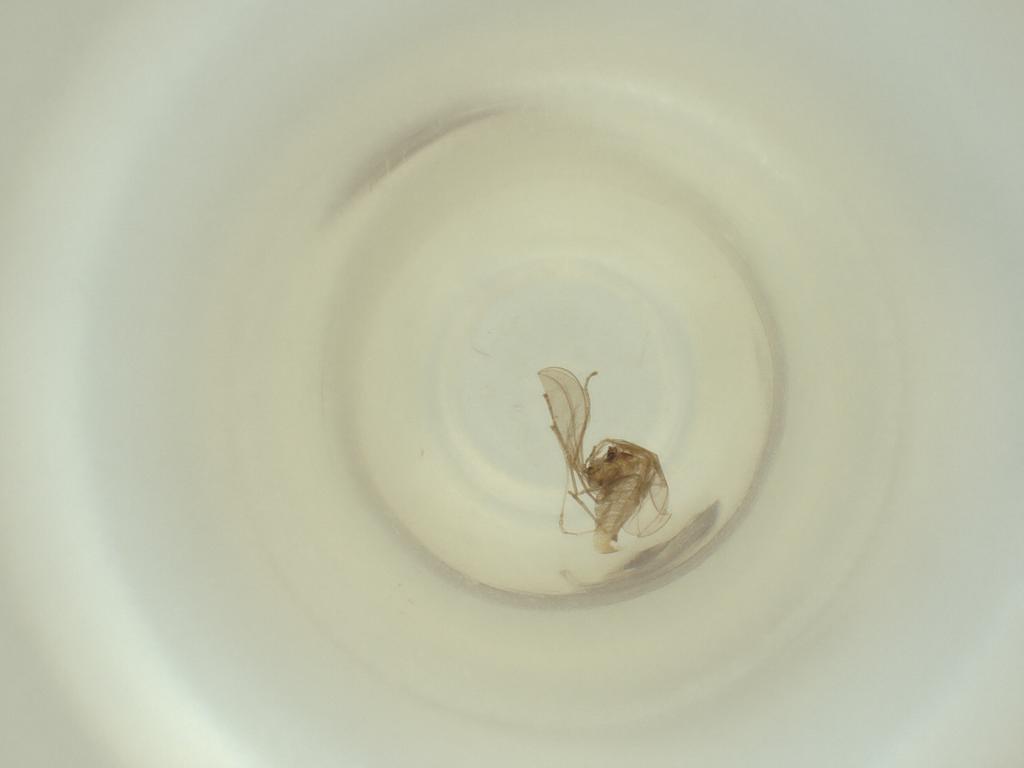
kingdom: Animalia
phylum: Arthropoda
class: Insecta
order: Diptera
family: Cecidomyiidae
